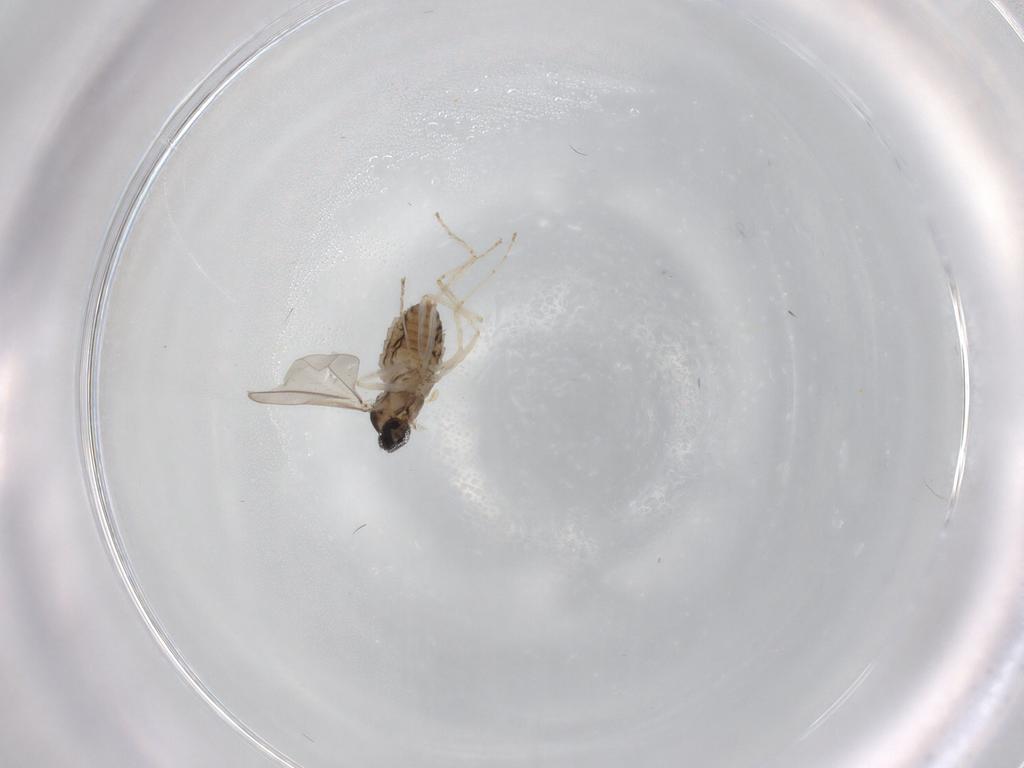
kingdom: Animalia
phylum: Arthropoda
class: Insecta
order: Diptera
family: Cecidomyiidae
